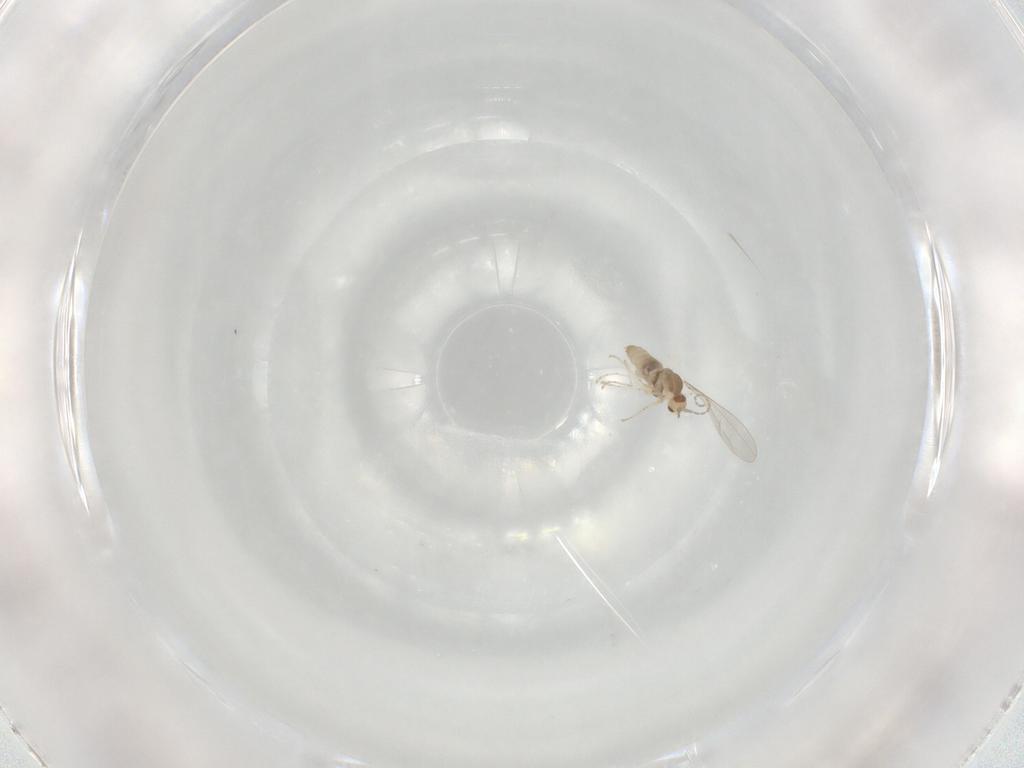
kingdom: Animalia
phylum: Arthropoda
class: Insecta
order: Diptera
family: Cecidomyiidae
